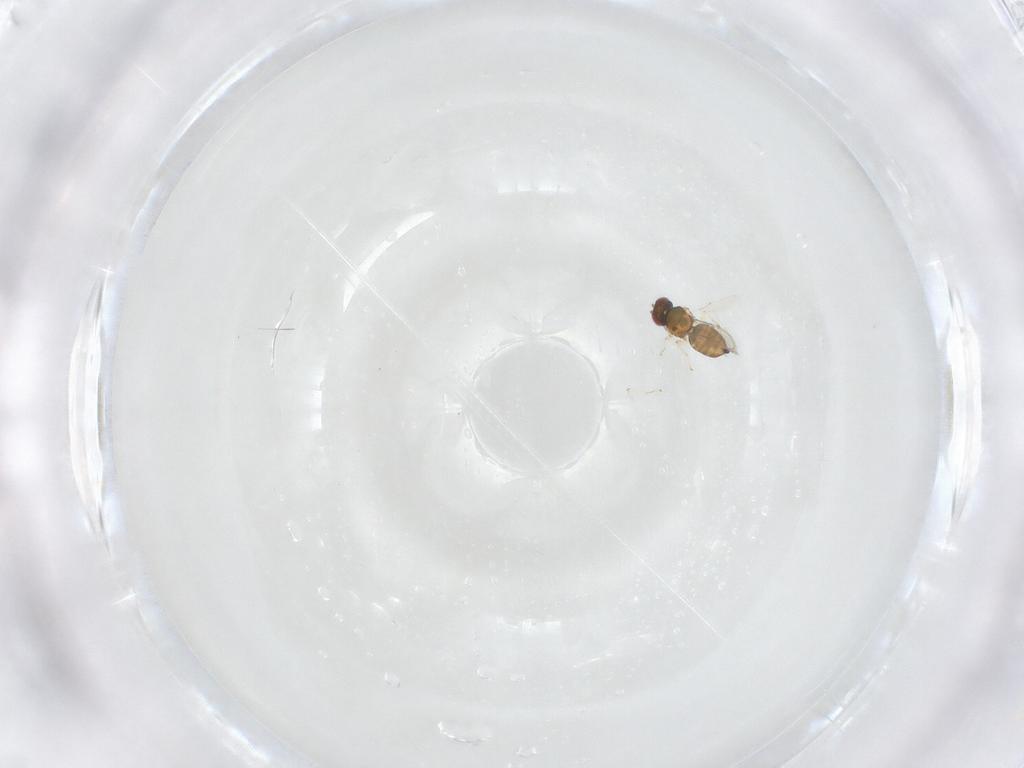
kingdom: Animalia
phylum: Arthropoda
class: Insecta
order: Hymenoptera
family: Eulophidae
